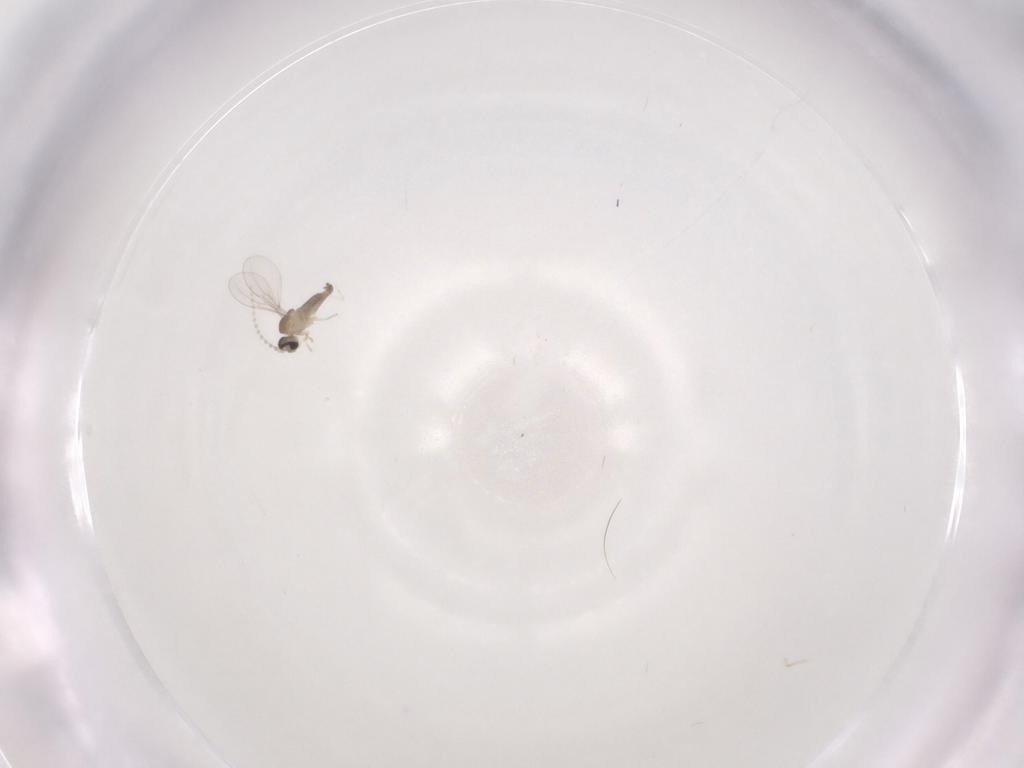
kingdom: Animalia
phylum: Arthropoda
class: Insecta
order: Diptera
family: Cecidomyiidae
